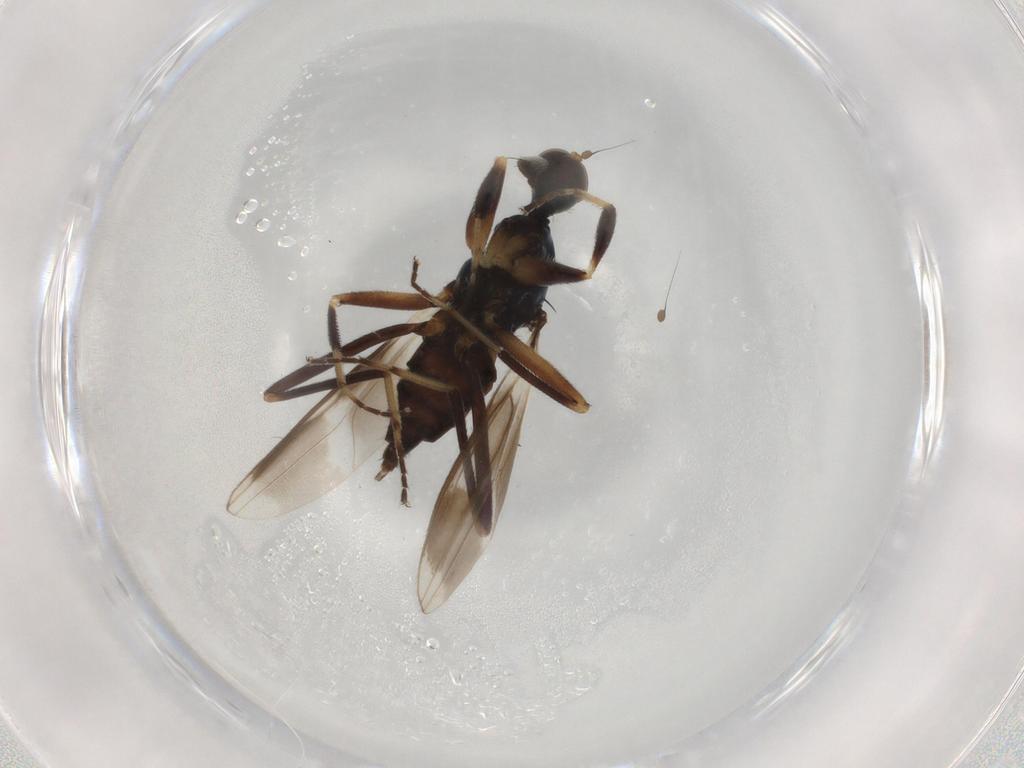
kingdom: Animalia
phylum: Arthropoda
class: Insecta
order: Diptera
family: Hybotidae
